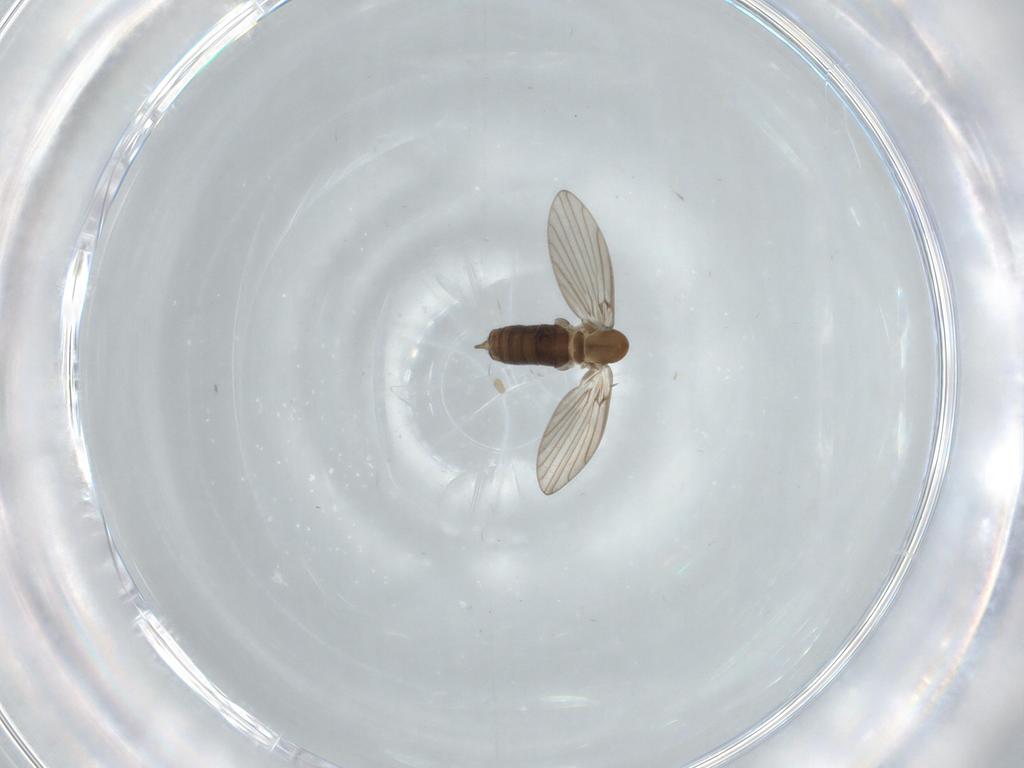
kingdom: Animalia
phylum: Arthropoda
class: Insecta
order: Diptera
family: Psychodidae
